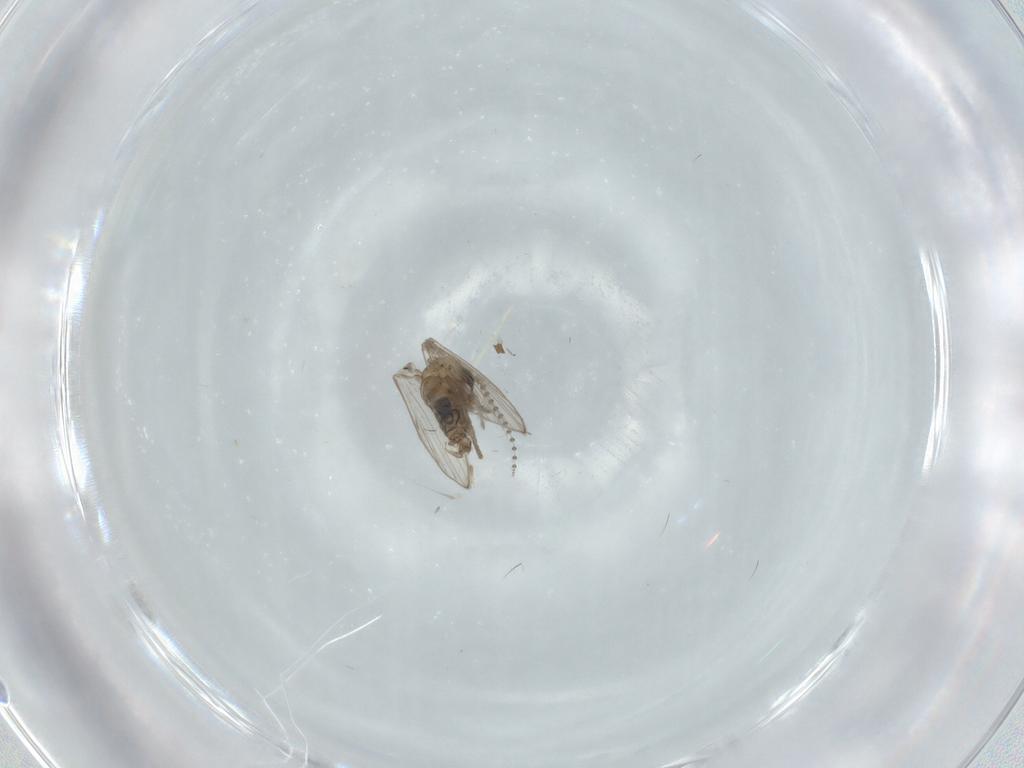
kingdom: Animalia
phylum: Arthropoda
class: Insecta
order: Diptera
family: Psychodidae
